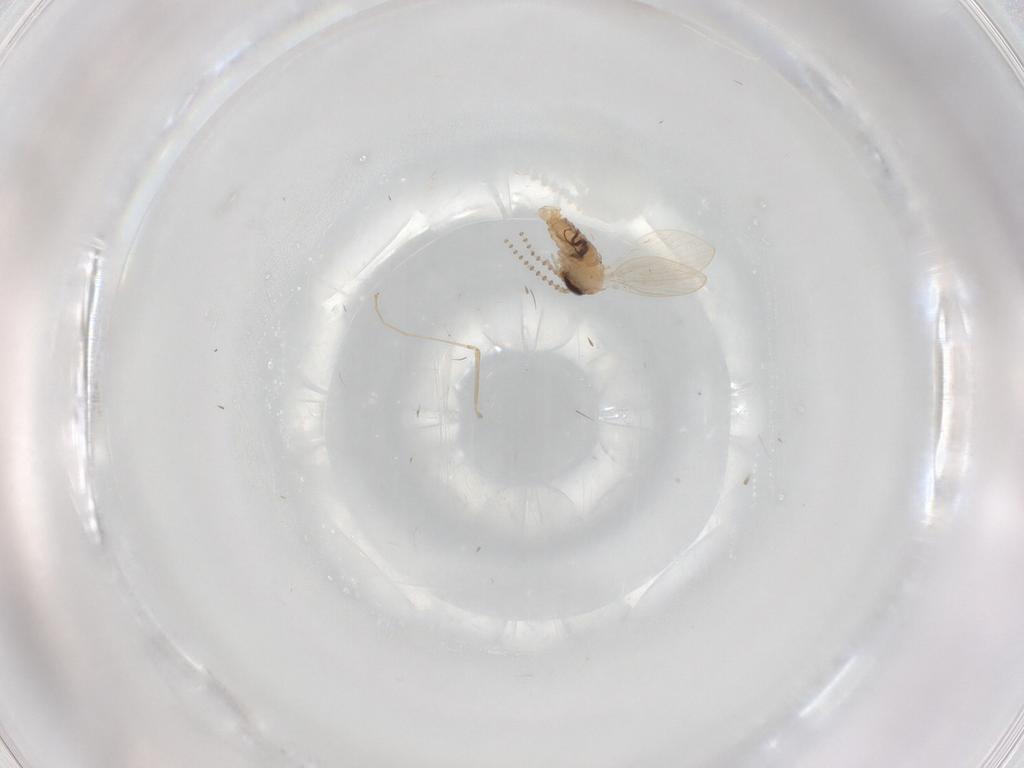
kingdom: Animalia
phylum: Arthropoda
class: Insecta
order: Diptera
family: Psychodidae
